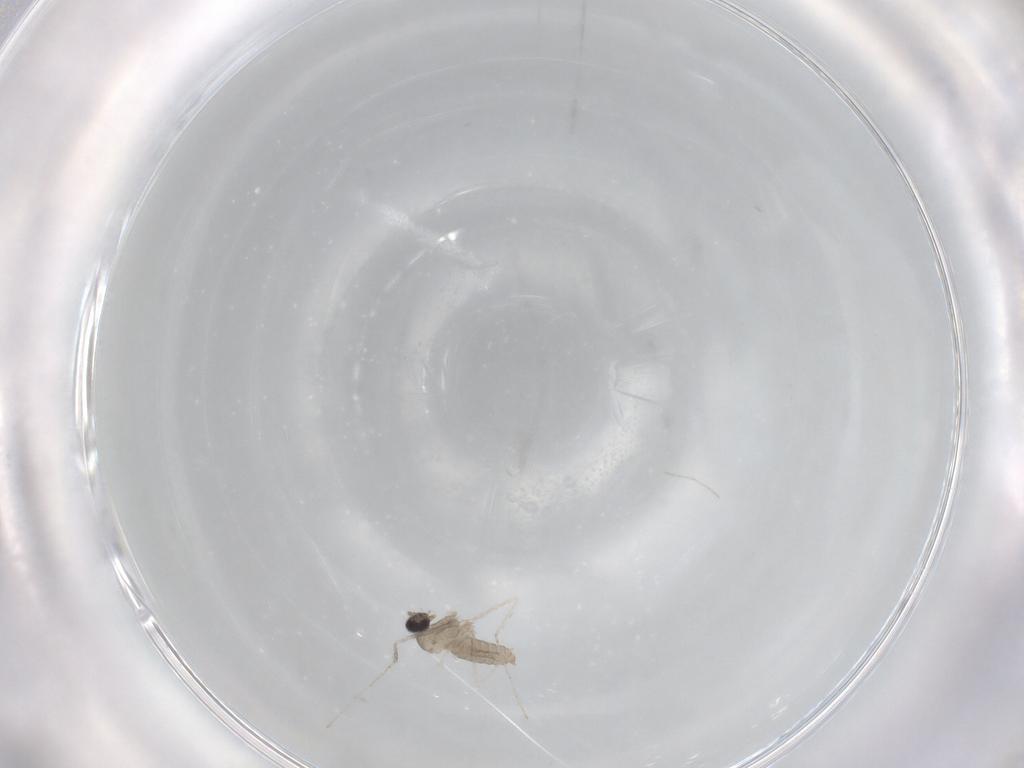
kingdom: Animalia
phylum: Arthropoda
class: Insecta
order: Diptera
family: Cecidomyiidae
